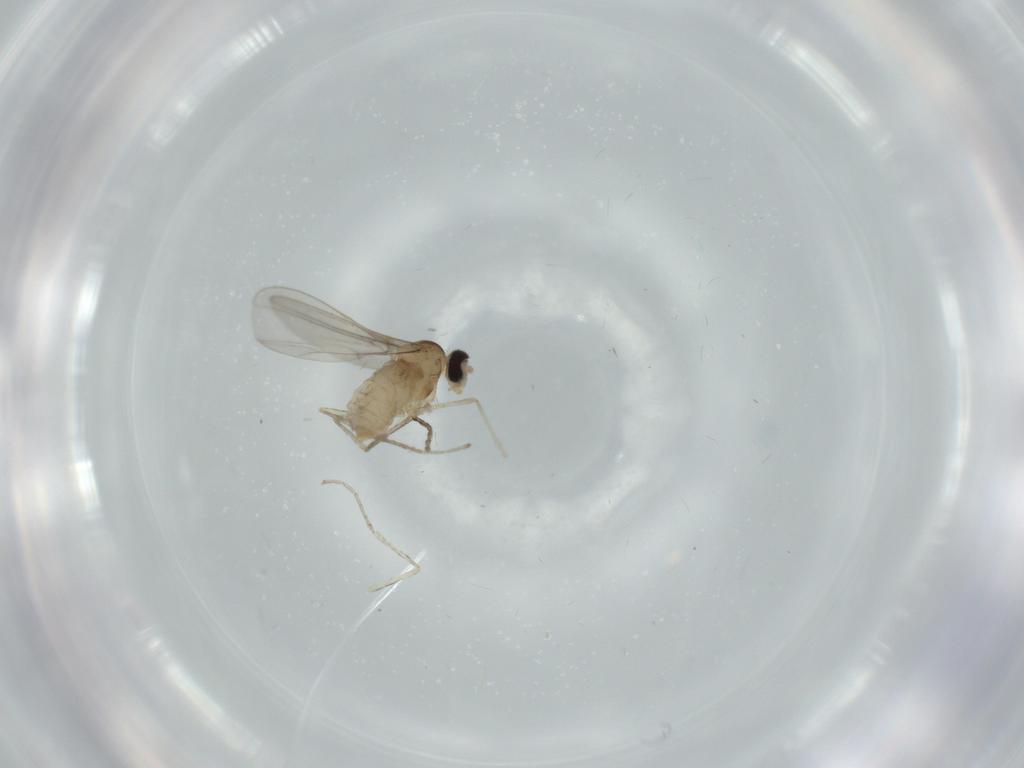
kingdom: Animalia
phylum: Arthropoda
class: Insecta
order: Diptera
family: Cecidomyiidae
